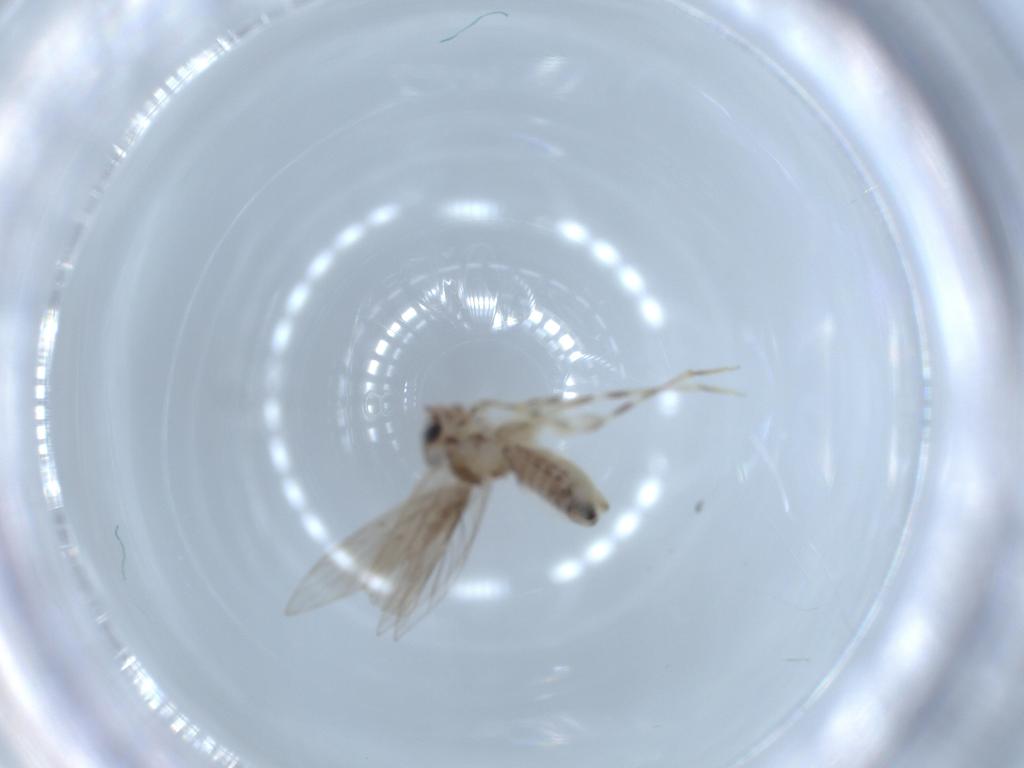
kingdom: Animalia
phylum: Arthropoda
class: Insecta
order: Psocodea
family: Lepidopsocidae
